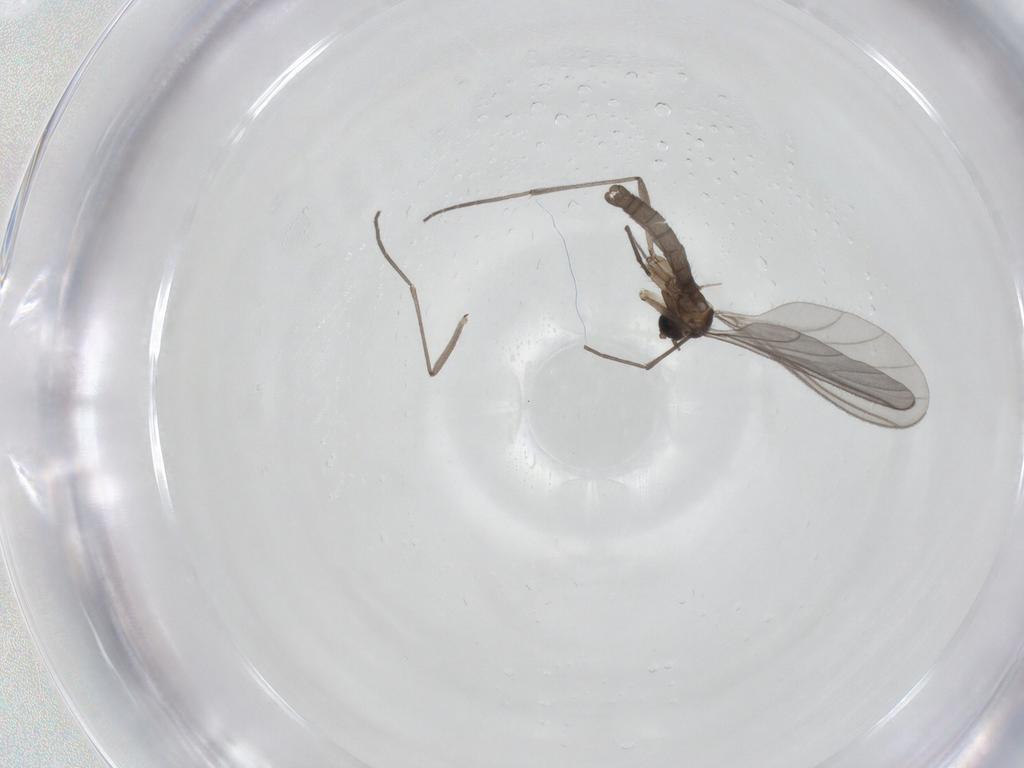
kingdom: Animalia
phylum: Arthropoda
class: Insecta
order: Diptera
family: Sciaridae
